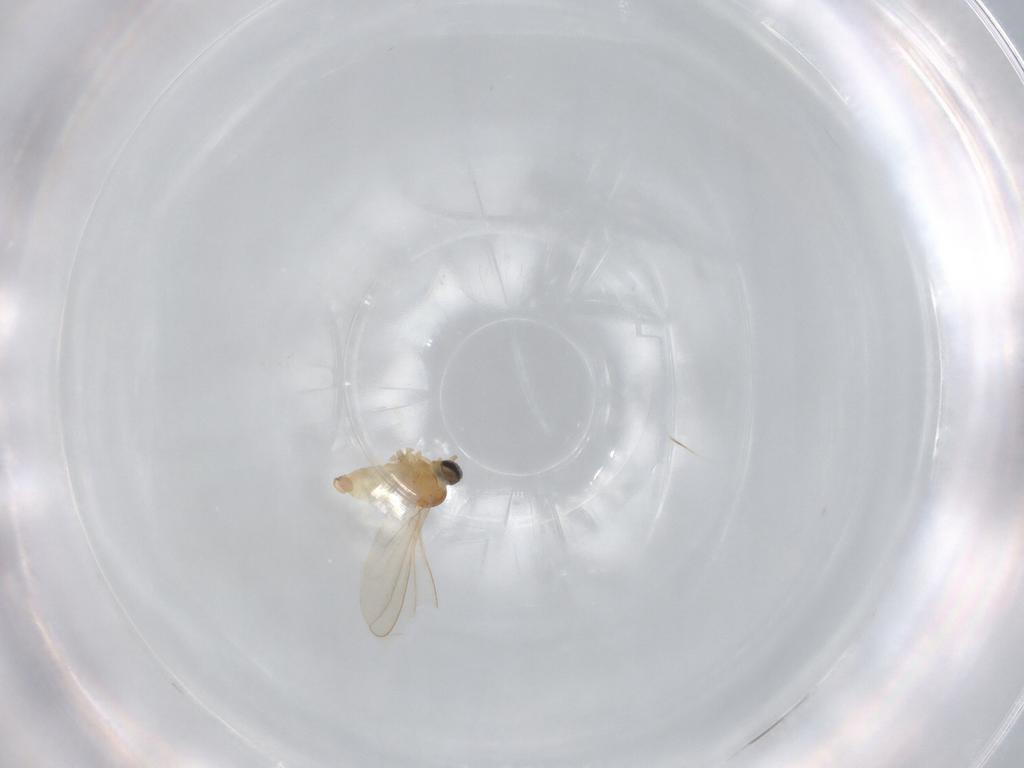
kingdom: Animalia
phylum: Arthropoda
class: Insecta
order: Diptera
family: Cecidomyiidae
